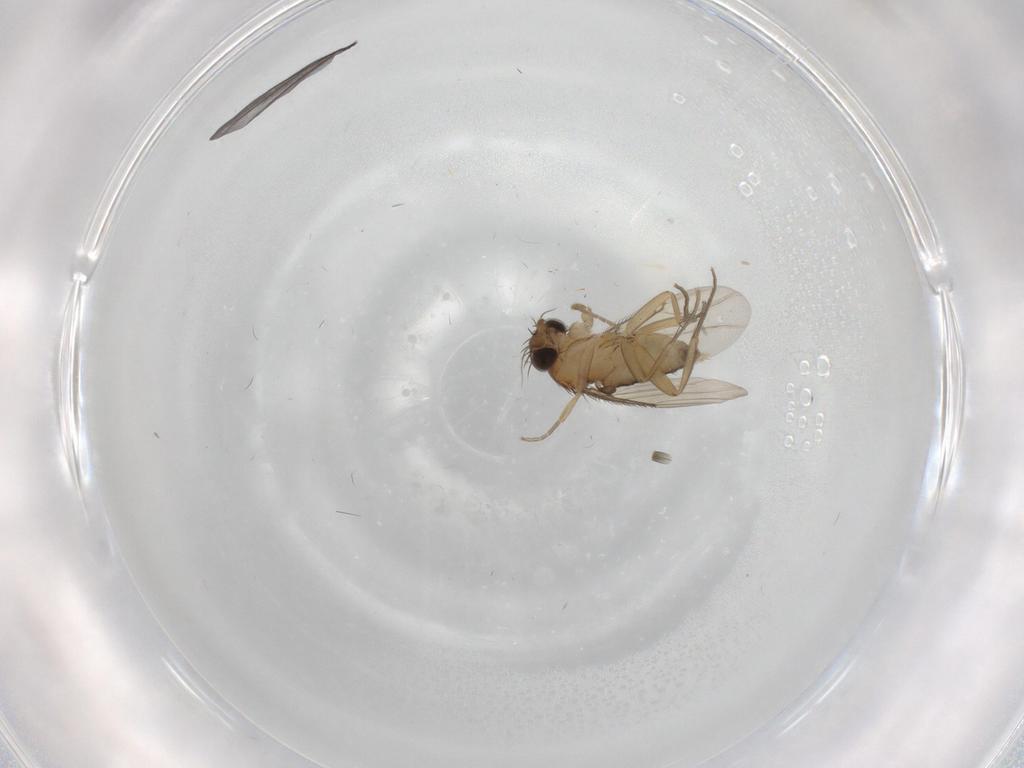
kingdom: Animalia
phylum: Arthropoda
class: Insecta
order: Diptera
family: Phoridae
